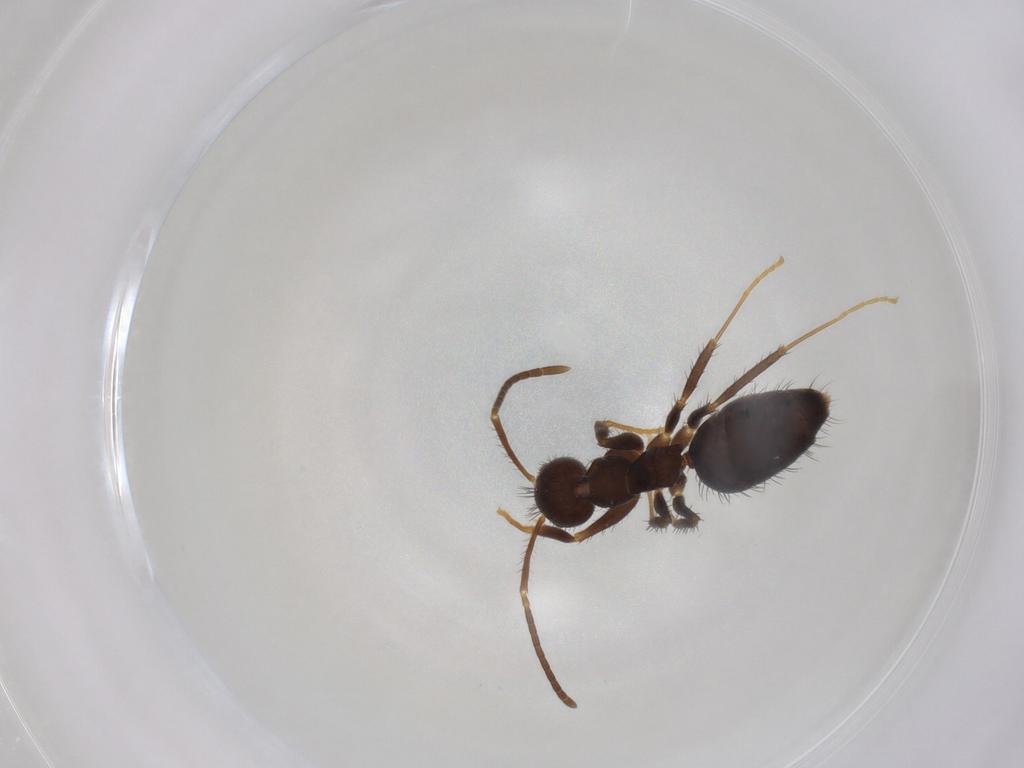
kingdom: Animalia
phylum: Arthropoda
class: Insecta
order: Hymenoptera
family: Formicidae
